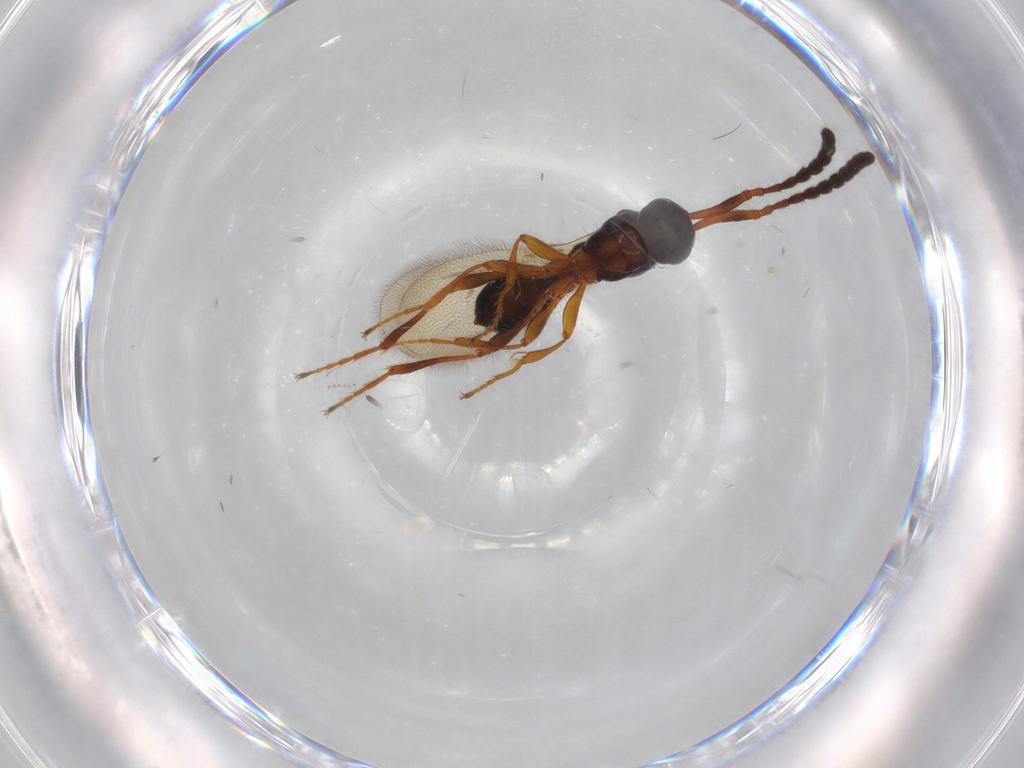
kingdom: Animalia
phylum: Arthropoda
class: Insecta
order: Hymenoptera
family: Diapriidae
